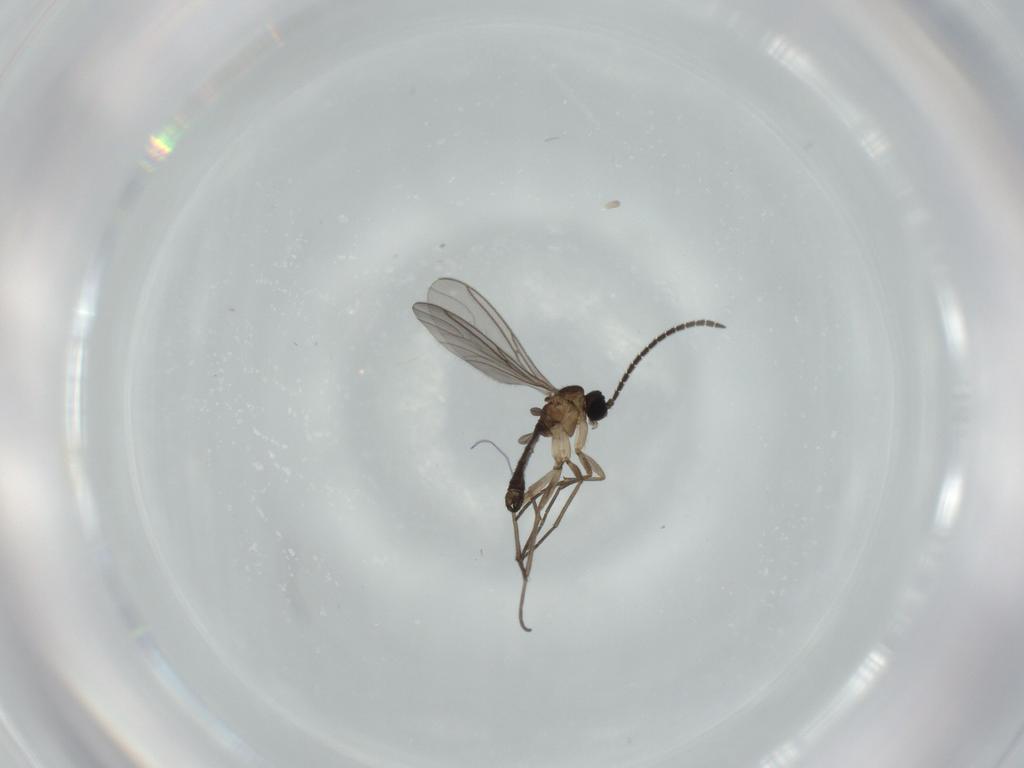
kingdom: Animalia
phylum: Arthropoda
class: Insecta
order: Diptera
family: Sciaridae
